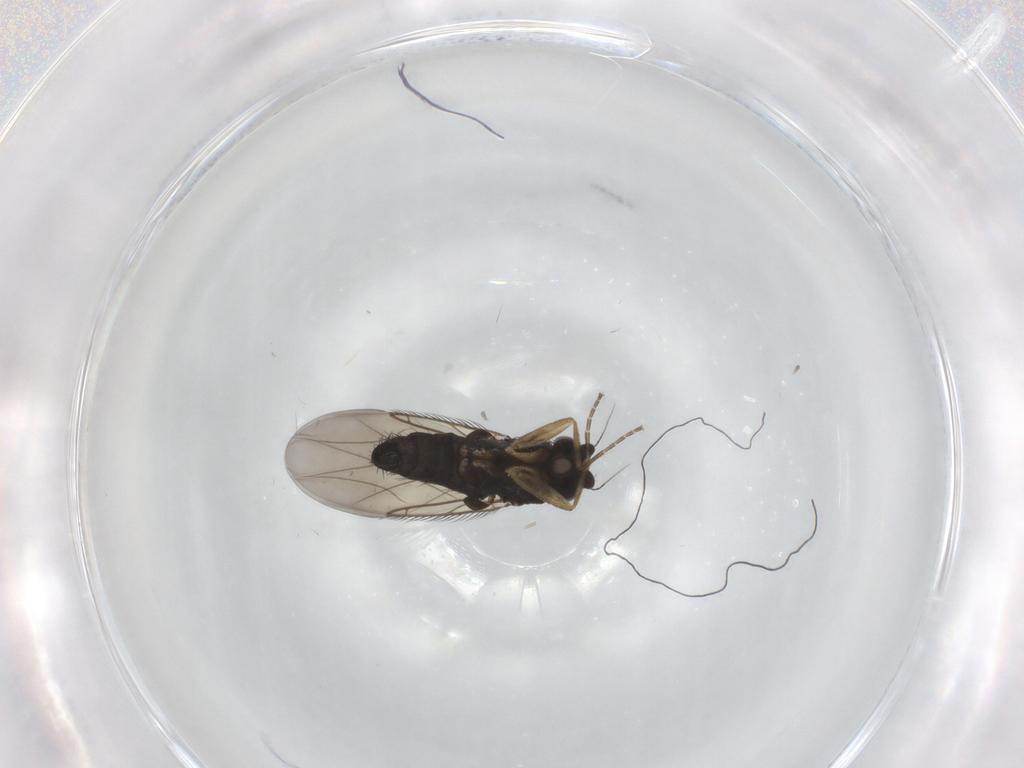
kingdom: Animalia
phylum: Arthropoda
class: Insecta
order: Diptera
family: Phoridae
